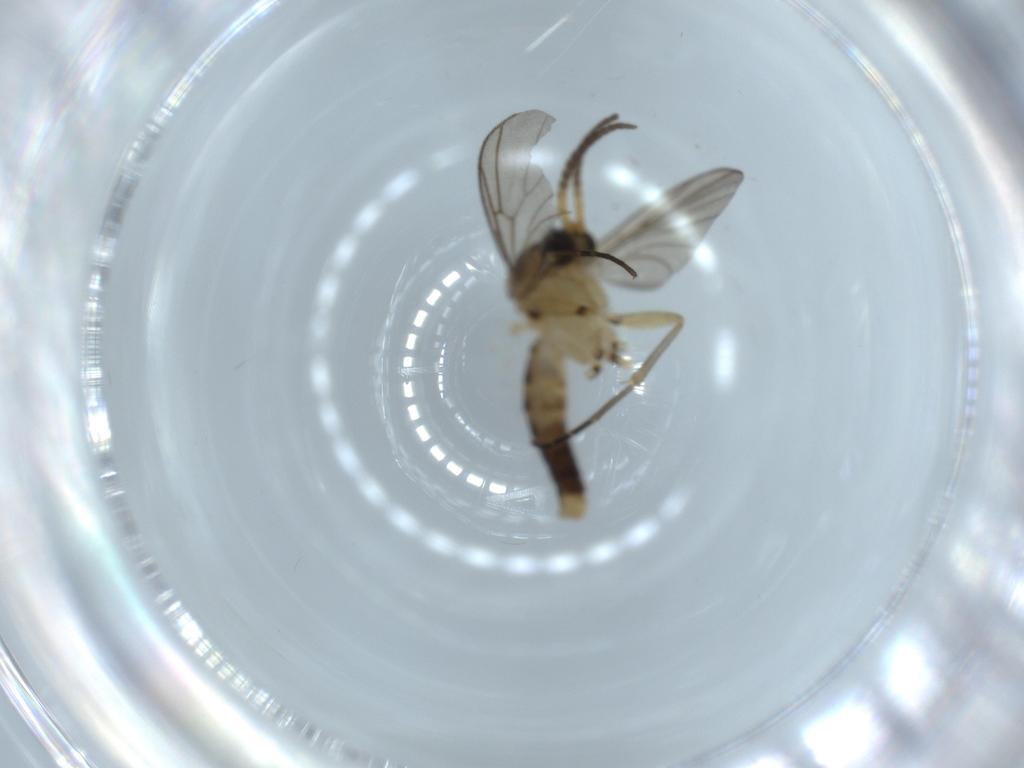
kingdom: Animalia
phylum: Arthropoda
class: Insecta
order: Diptera
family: Mycetophilidae
